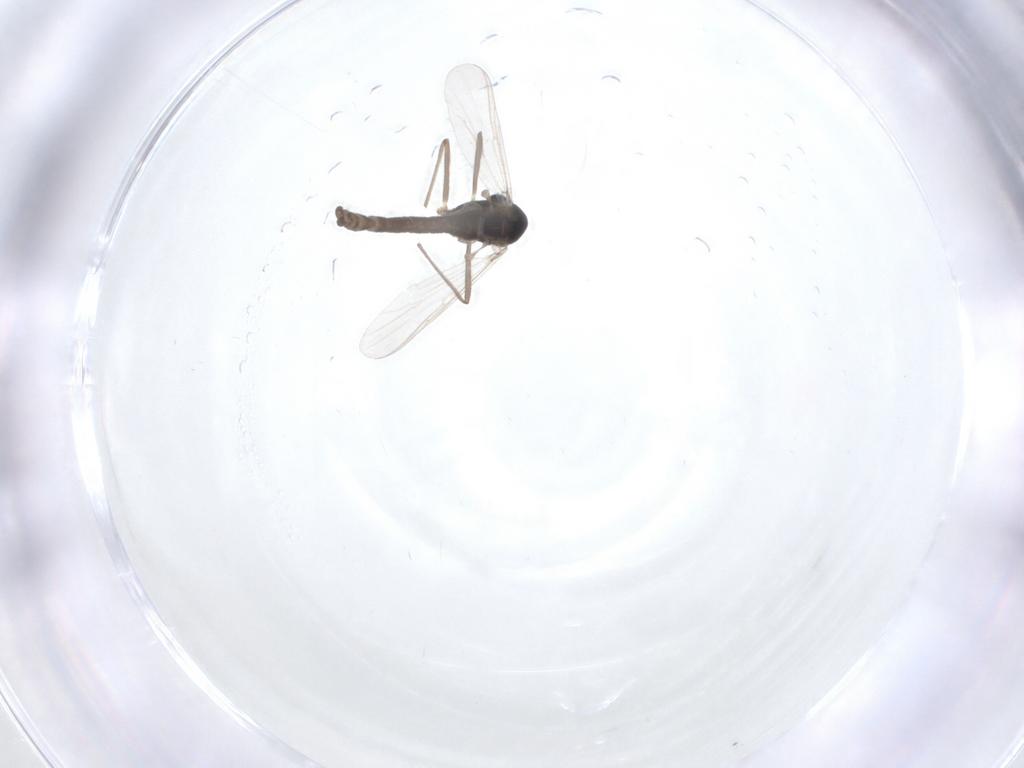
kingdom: Animalia
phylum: Arthropoda
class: Insecta
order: Diptera
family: Chironomidae
